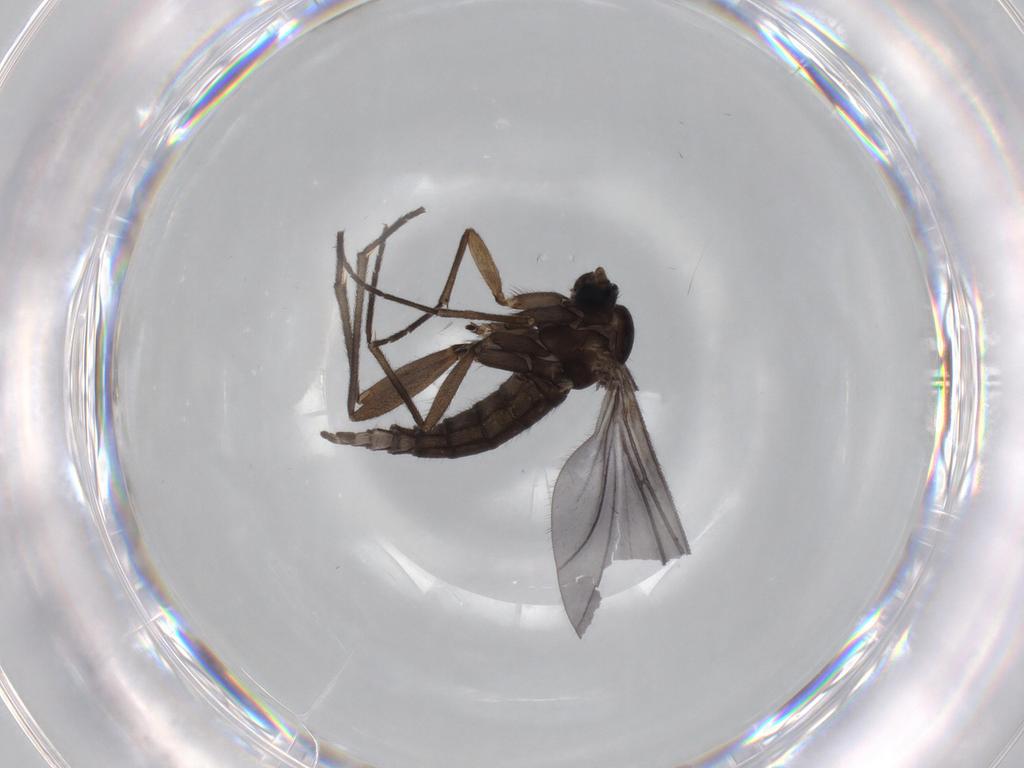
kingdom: Animalia
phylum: Arthropoda
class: Insecta
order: Diptera
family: Sciaridae
